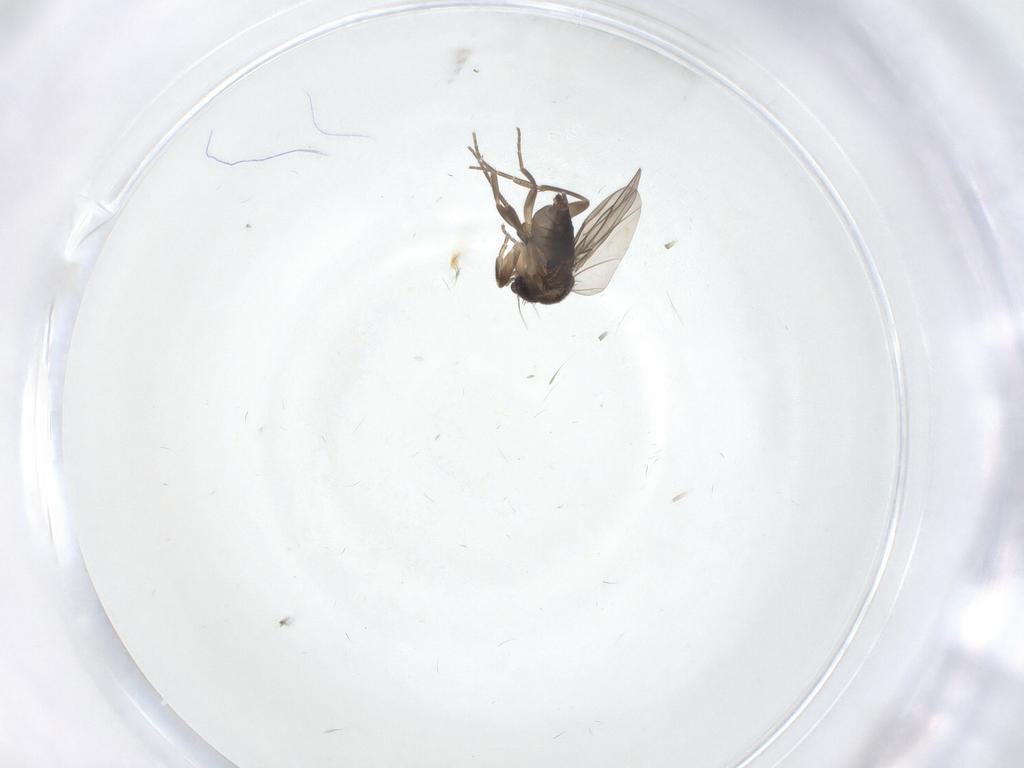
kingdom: Animalia
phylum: Arthropoda
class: Insecta
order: Diptera
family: Phoridae
